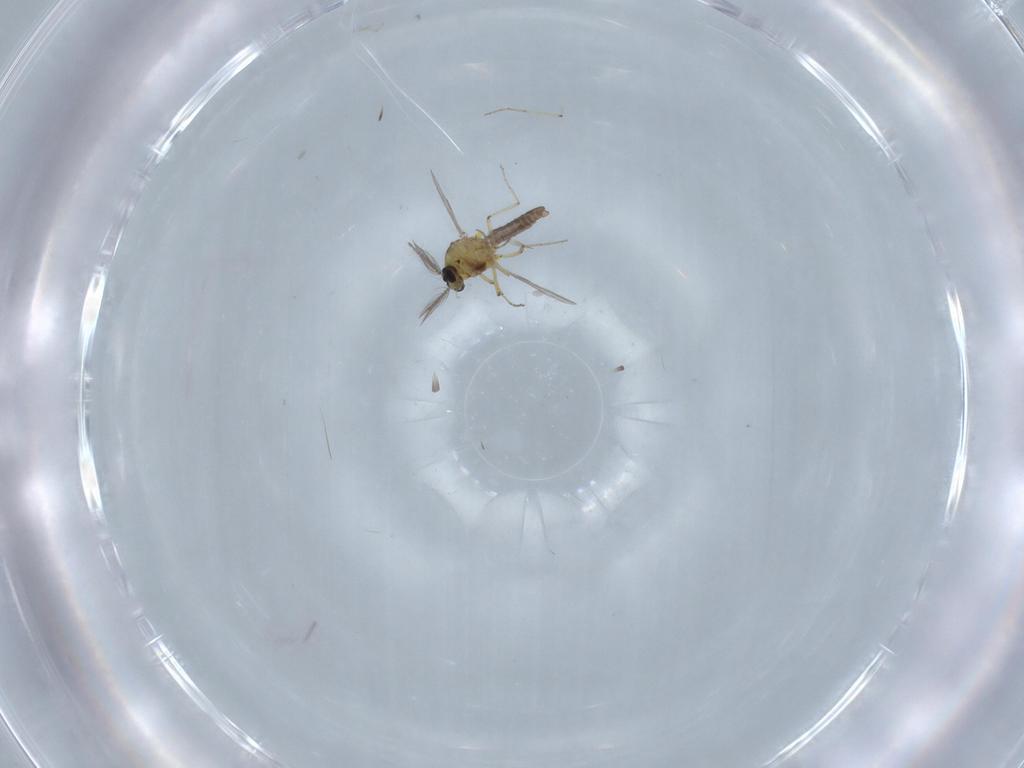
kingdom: Animalia
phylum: Arthropoda
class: Insecta
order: Diptera
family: Ceratopogonidae
